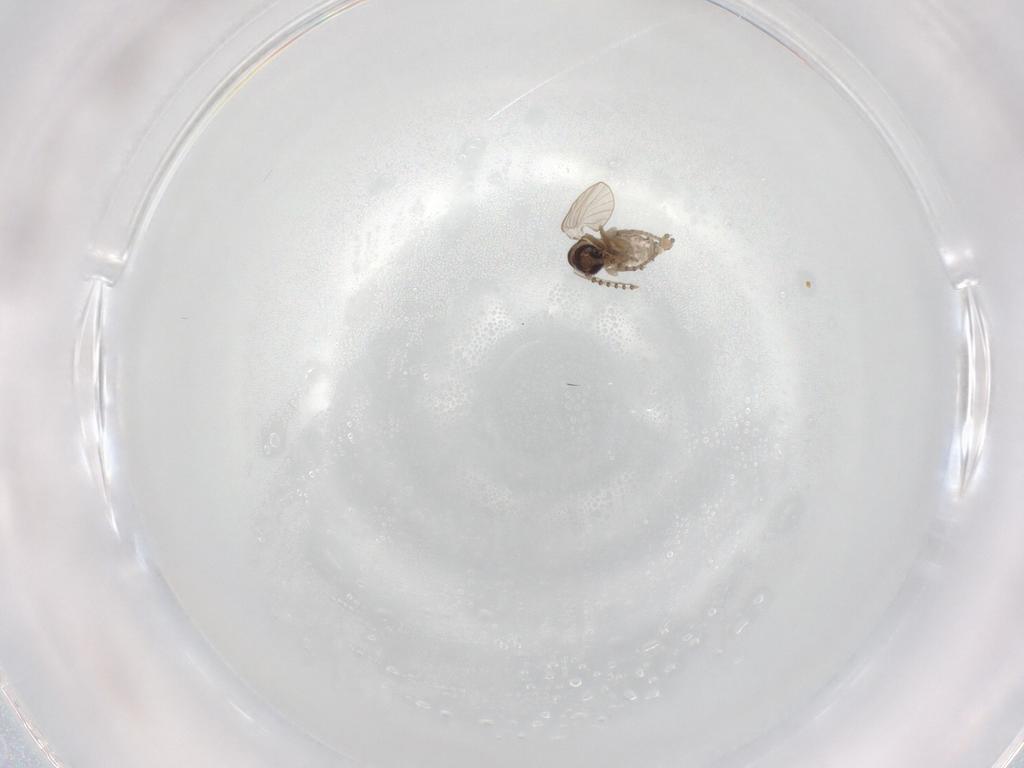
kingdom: Animalia
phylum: Arthropoda
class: Insecta
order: Diptera
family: Psychodidae
